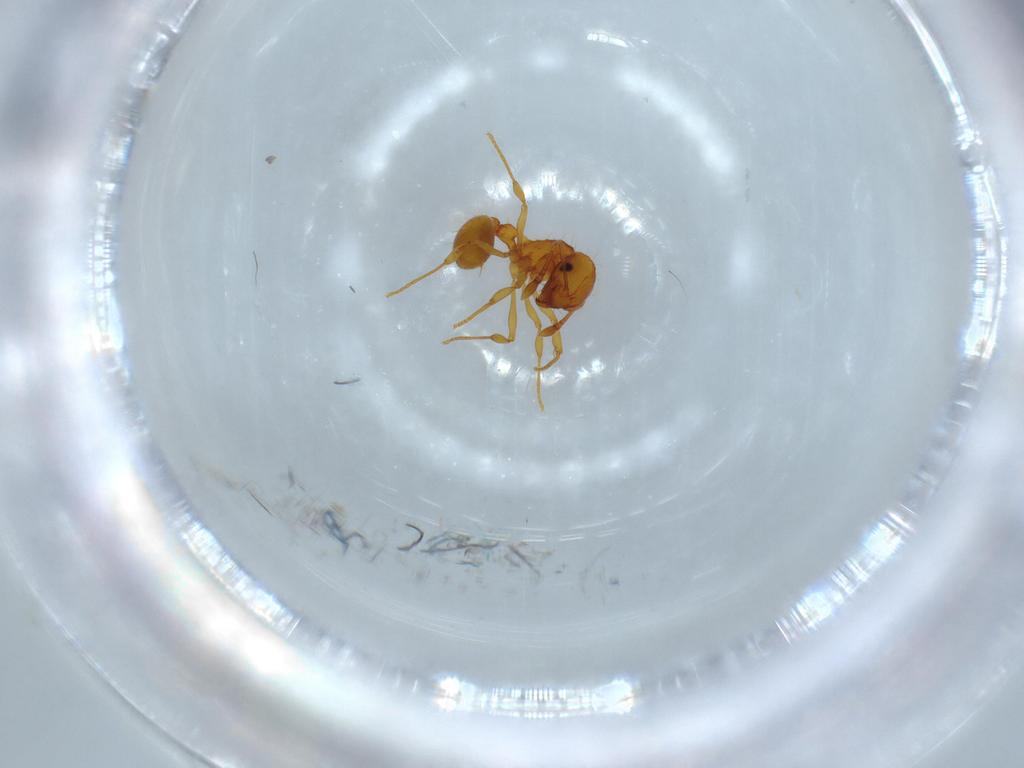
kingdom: Animalia
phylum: Arthropoda
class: Insecta
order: Hymenoptera
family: Formicidae
